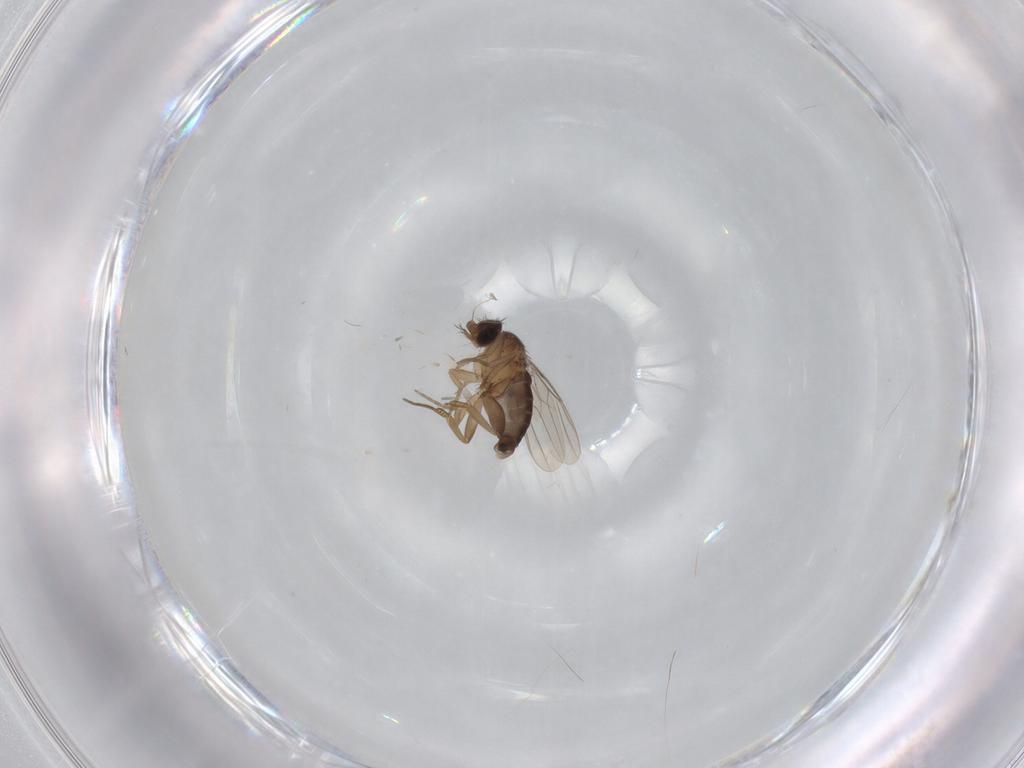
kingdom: Animalia
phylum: Arthropoda
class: Insecta
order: Diptera
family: Phoridae
